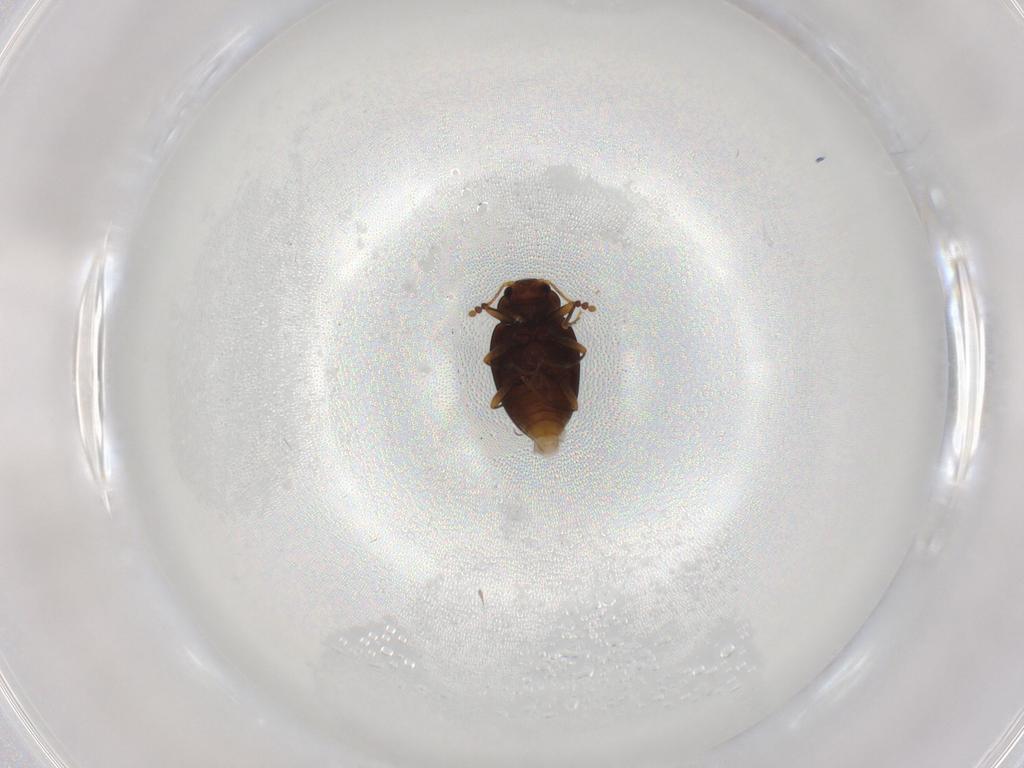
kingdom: Animalia
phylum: Arthropoda
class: Insecta
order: Coleoptera
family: Erotylidae
